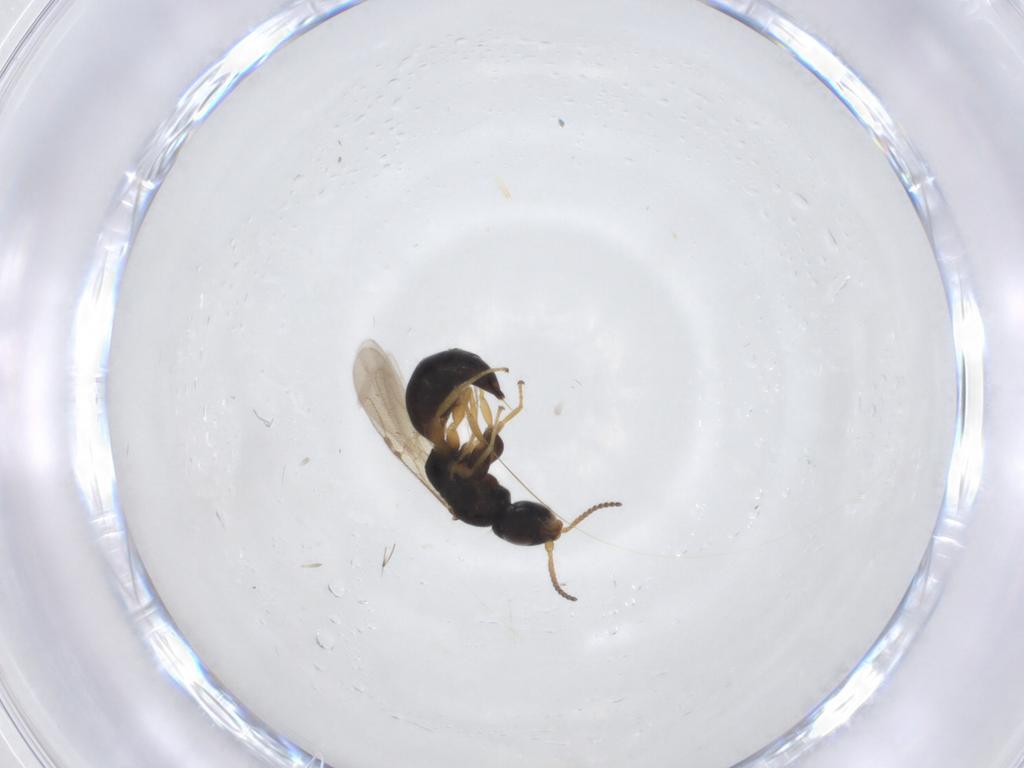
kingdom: Animalia
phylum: Arthropoda
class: Insecta
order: Hymenoptera
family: Bethylidae
